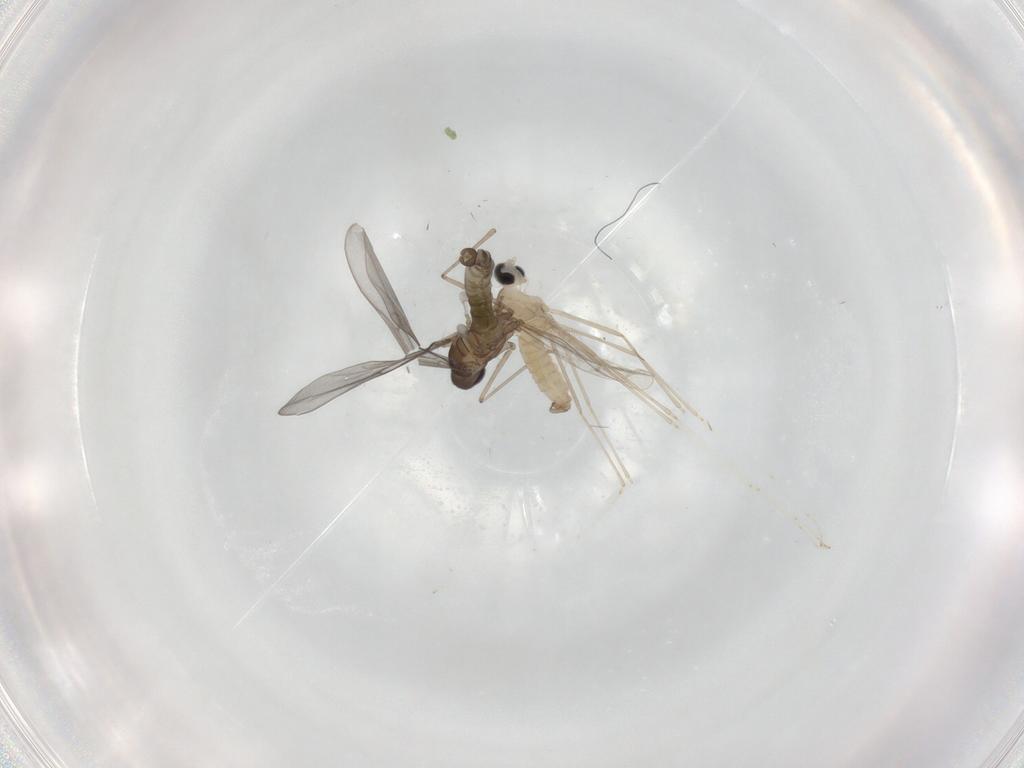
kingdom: Animalia
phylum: Arthropoda
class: Insecta
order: Diptera
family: Cecidomyiidae
